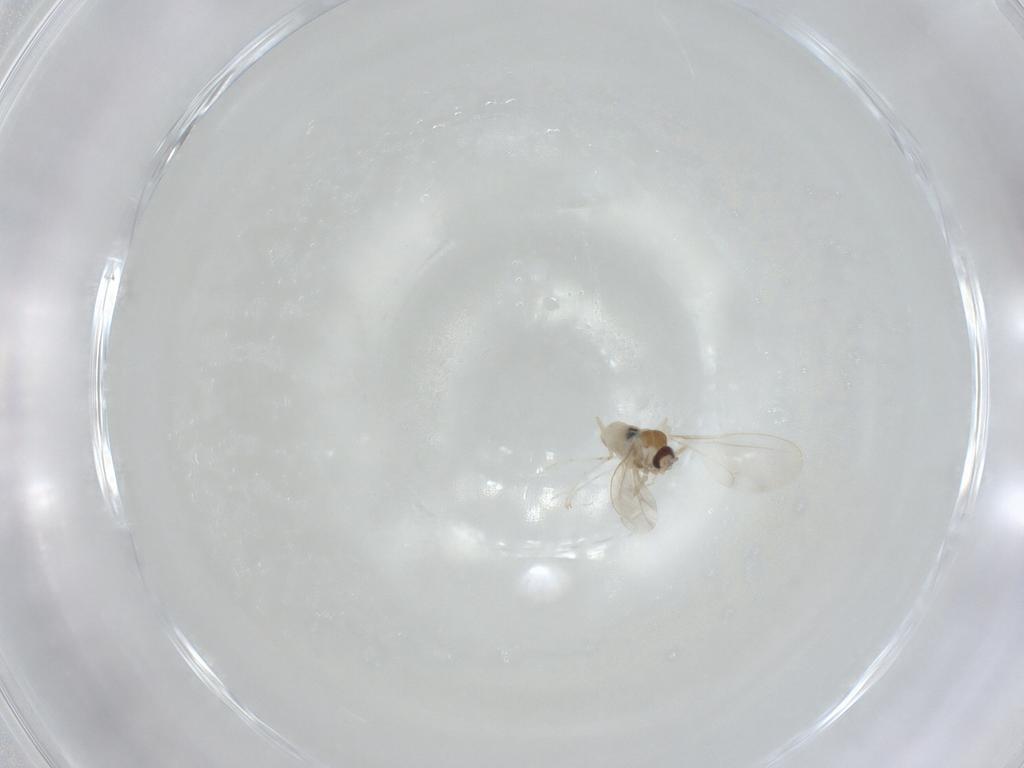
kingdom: Animalia
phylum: Arthropoda
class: Insecta
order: Diptera
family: Cecidomyiidae
